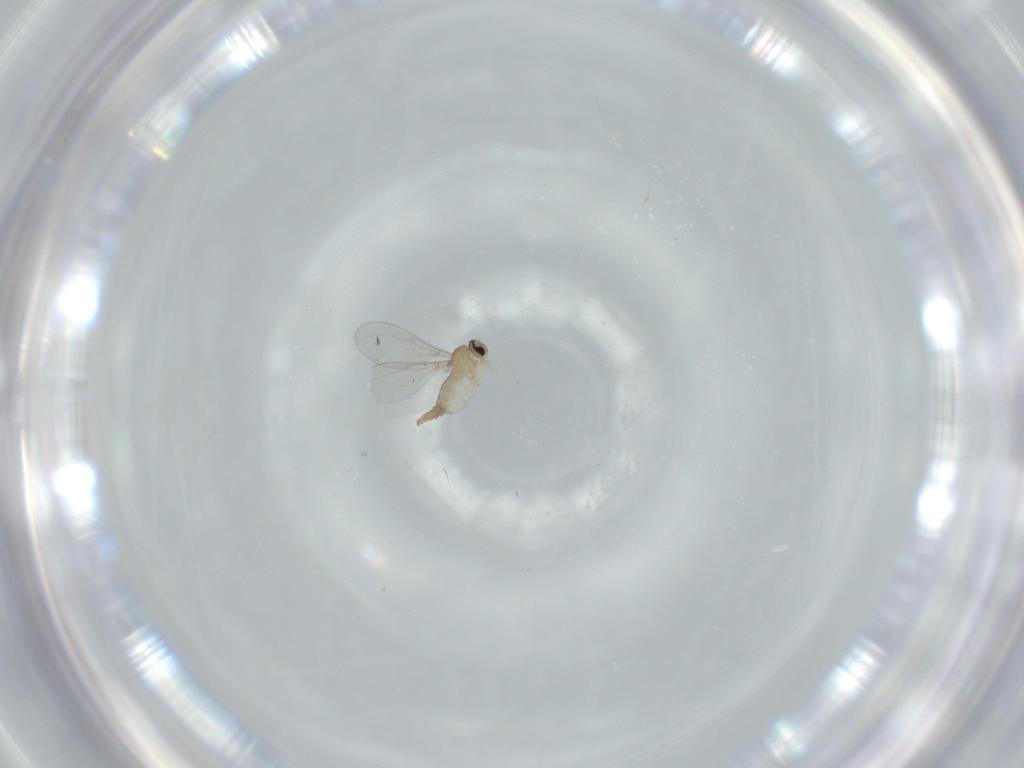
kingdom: Animalia
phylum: Arthropoda
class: Insecta
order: Diptera
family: Cecidomyiidae
